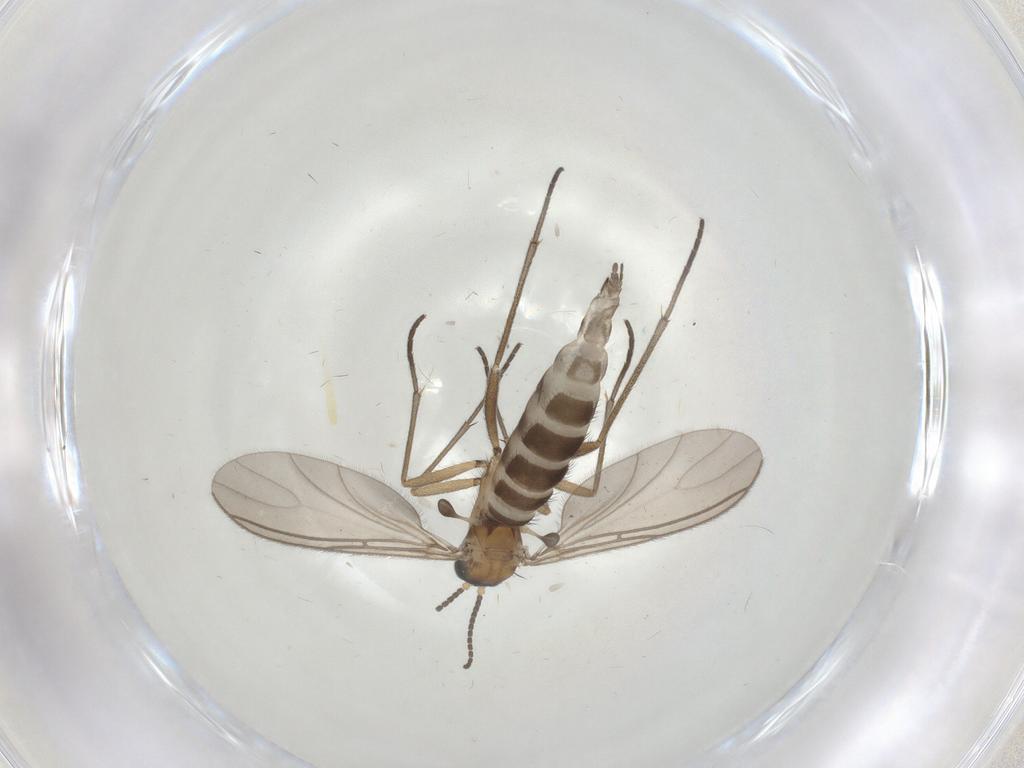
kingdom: Animalia
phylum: Arthropoda
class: Insecta
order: Diptera
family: Sciaridae
